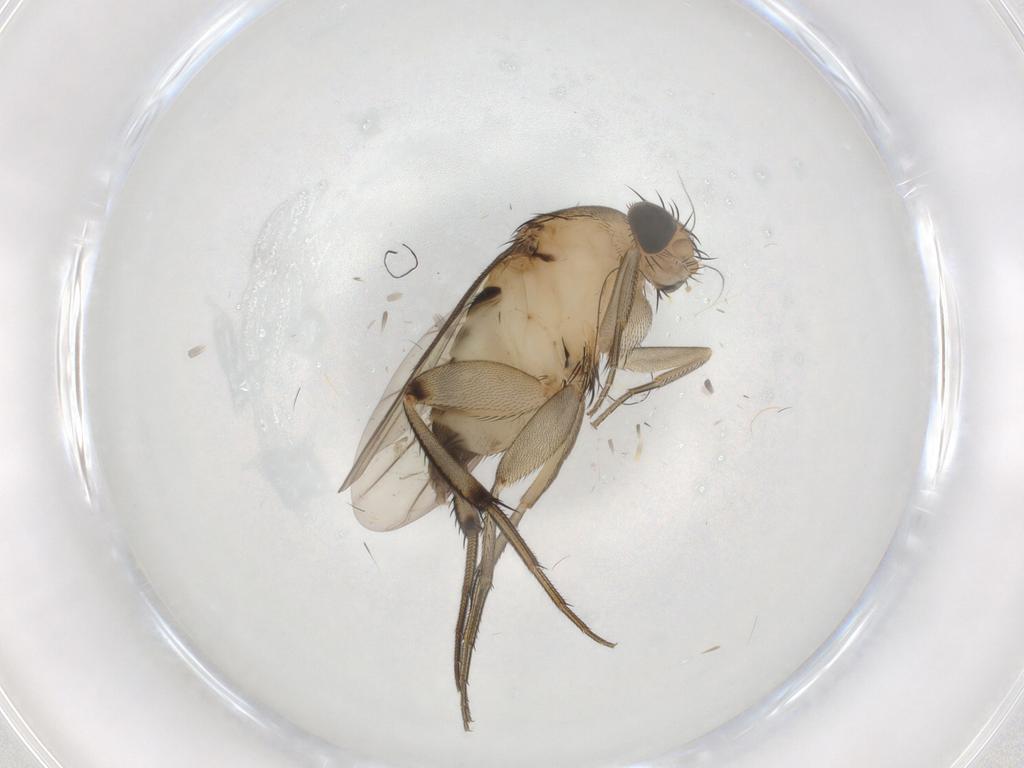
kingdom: Animalia
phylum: Arthropoda
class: Insecta
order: Diptera
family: Phoridae
